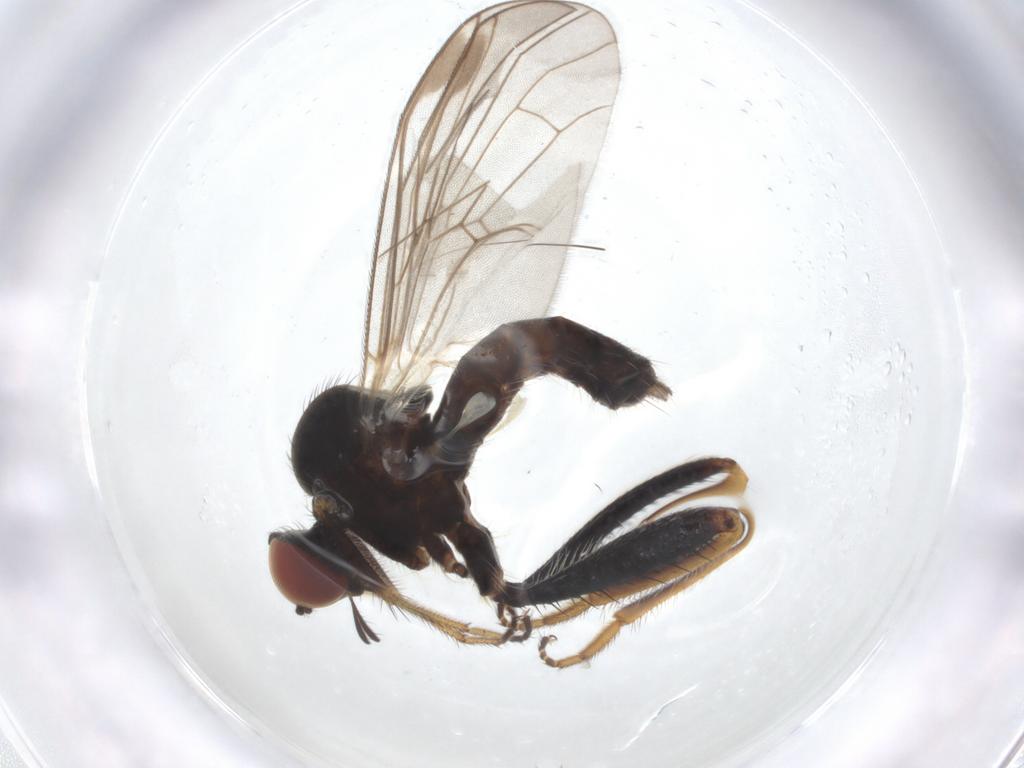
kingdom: Animalia
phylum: Arthropoda
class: Insecta
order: Diptera
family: Hybotidae
